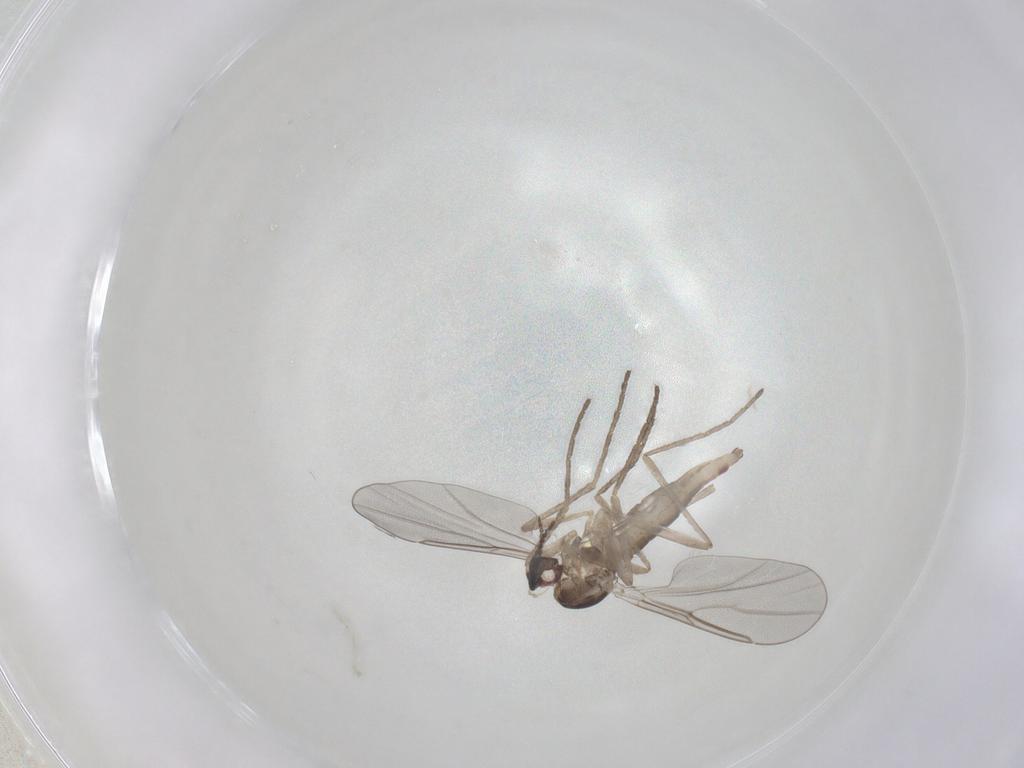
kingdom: Animalia
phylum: Arthropoda
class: Insecta
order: Diptera
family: Cecidomyiidae
